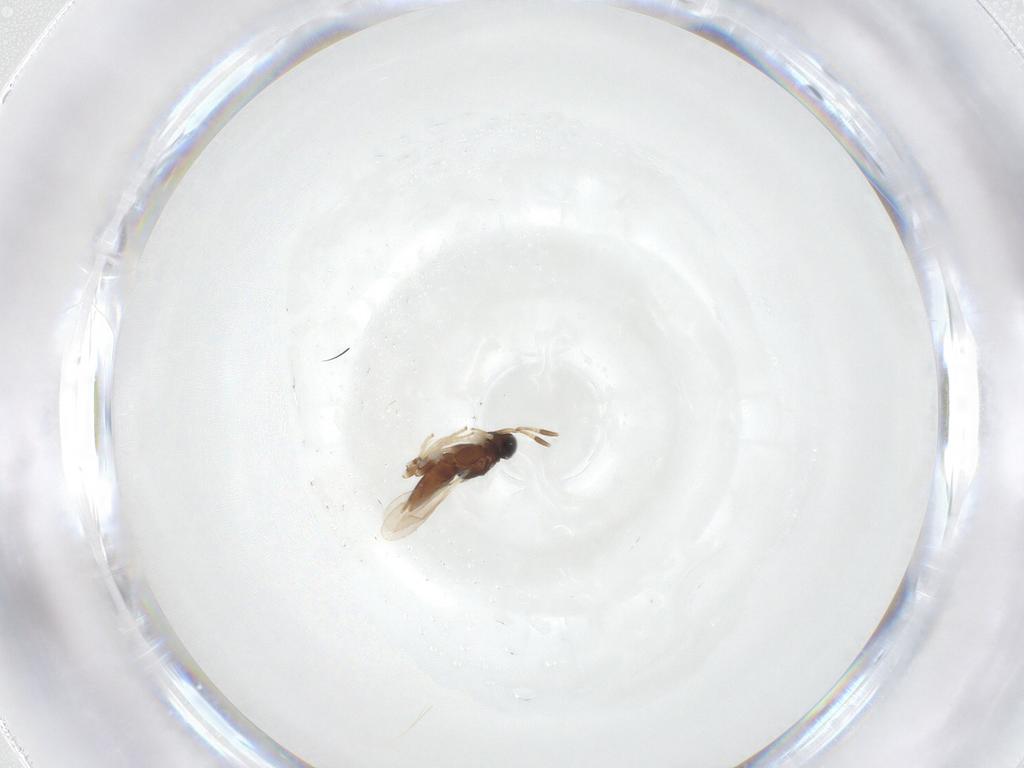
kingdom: Animalia
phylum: Arthropoda
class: Insecta
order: Hymenoptera
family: Encyrtidae
